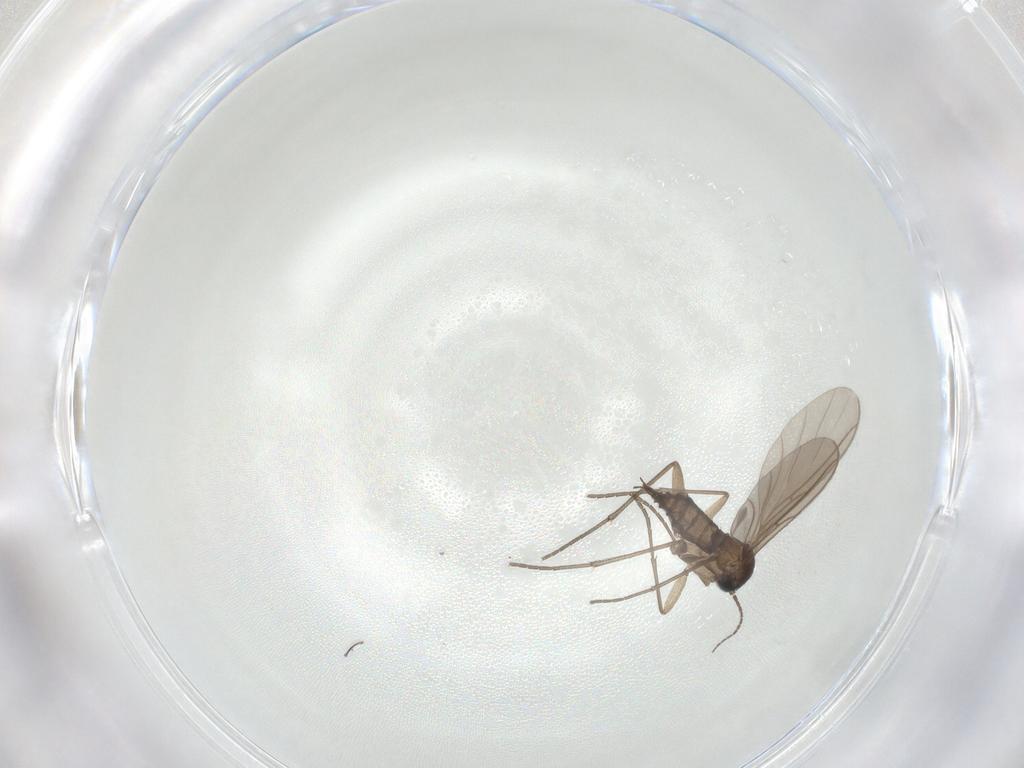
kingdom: Animalia
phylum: Arthropoda
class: Insecta
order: Diptera
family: Sciaridae
